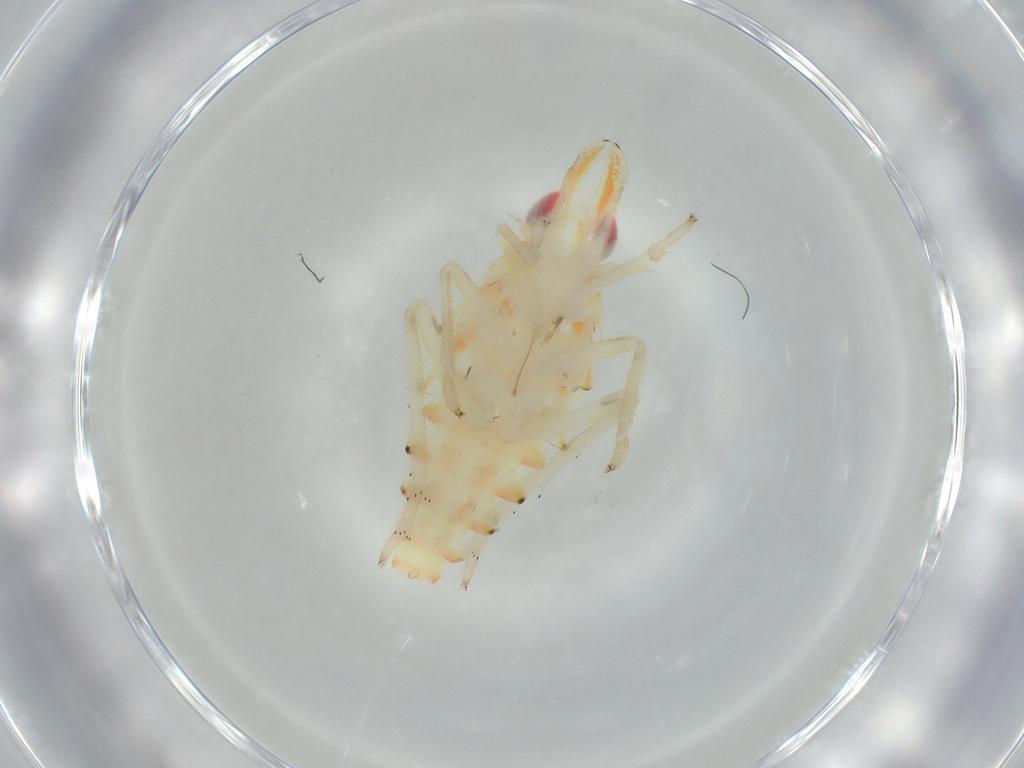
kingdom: Animalia
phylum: Arthropoda
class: Insecta
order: Hemiptera
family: Tropiduchidae
